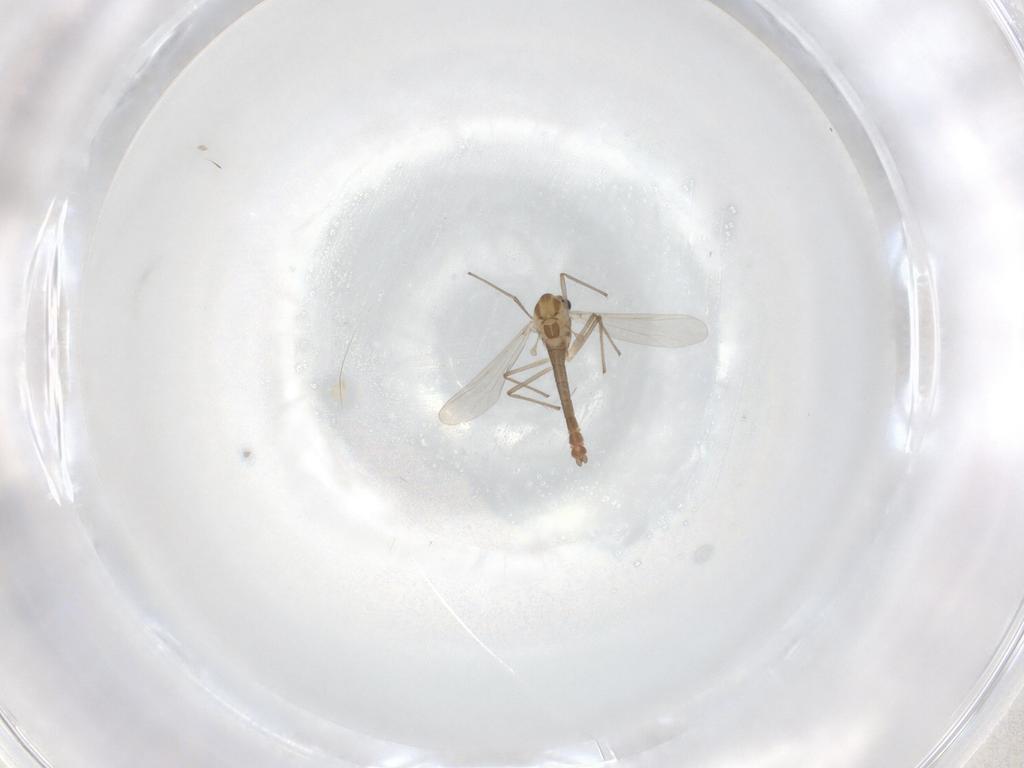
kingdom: Animalia
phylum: Arthropoda
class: Insecta
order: Diptera
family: Chironomidae
